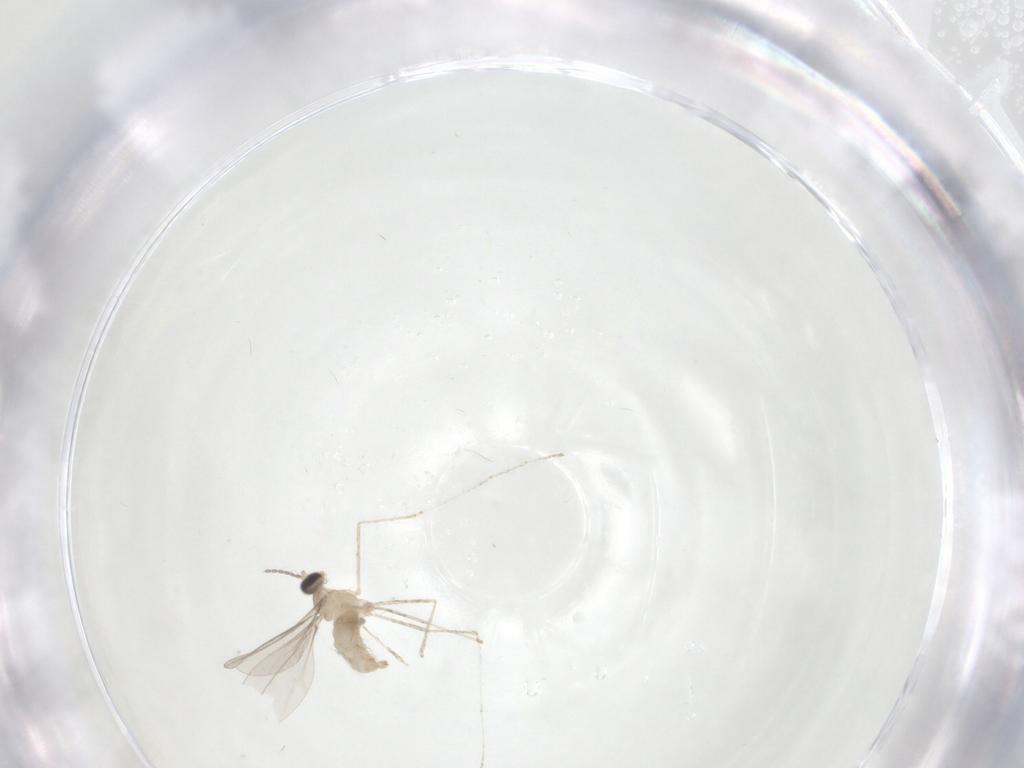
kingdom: Animalia
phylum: Arthropoda
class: Insecta
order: Diptera
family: Cecidomyiidae
